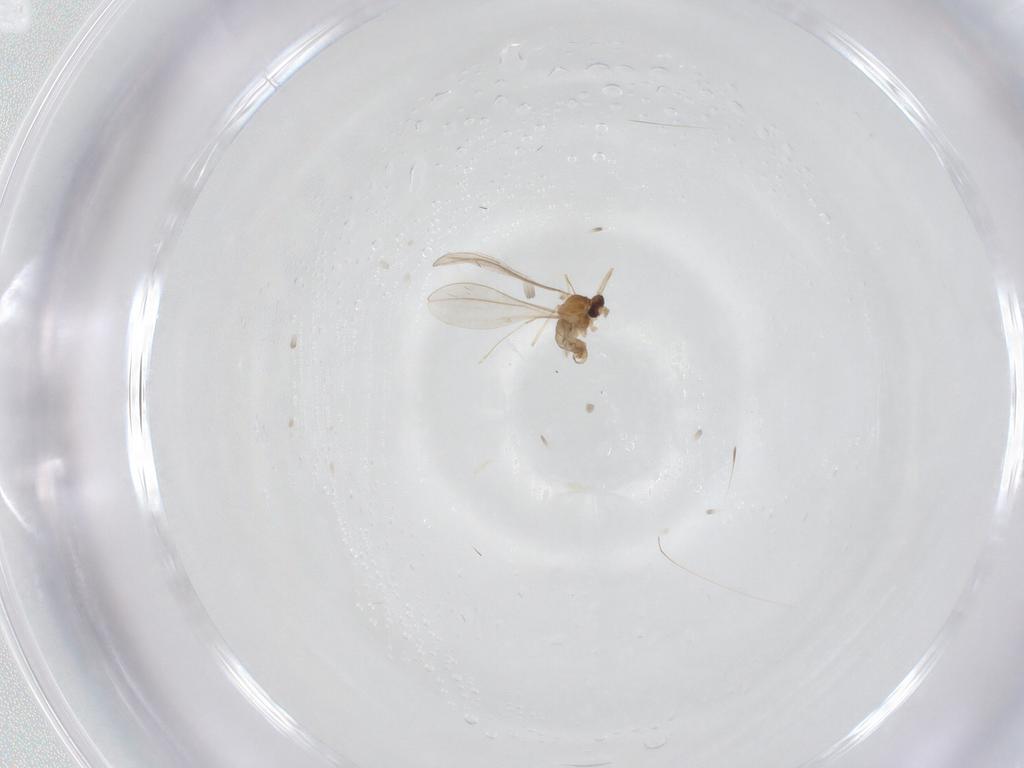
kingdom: Animalia
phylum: Arthropoda
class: Insecta
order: Diptera
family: Cecidomyiidae
